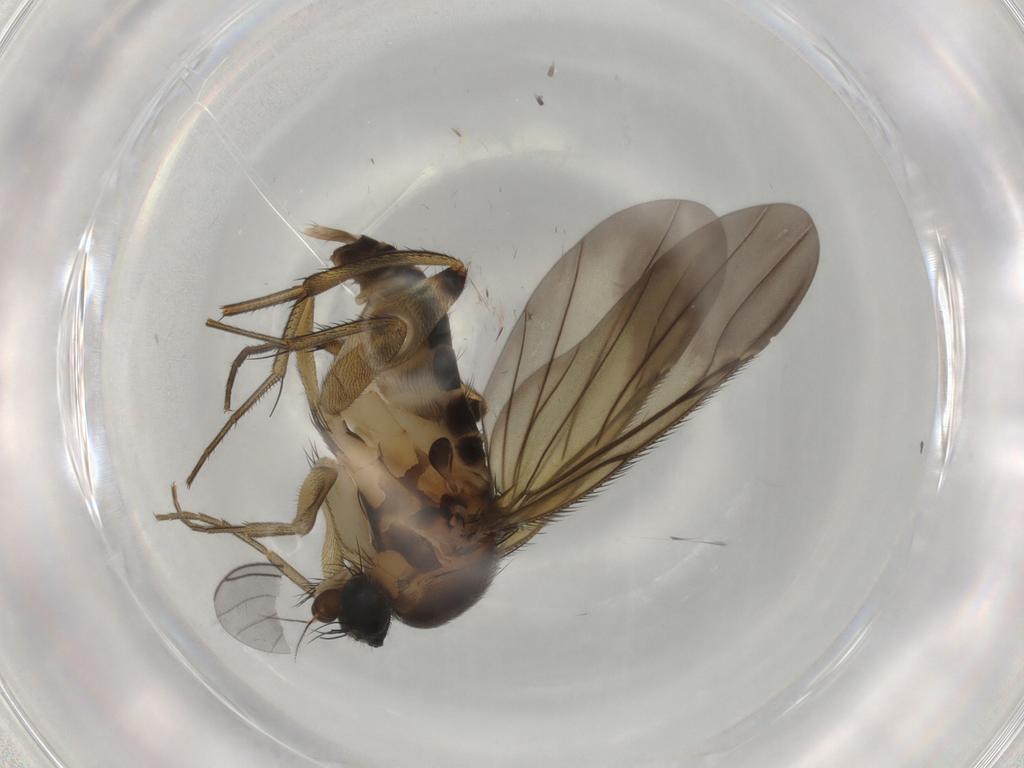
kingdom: Animalia
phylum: Arthropoda
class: Insecta
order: Diptera
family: Phoridae
